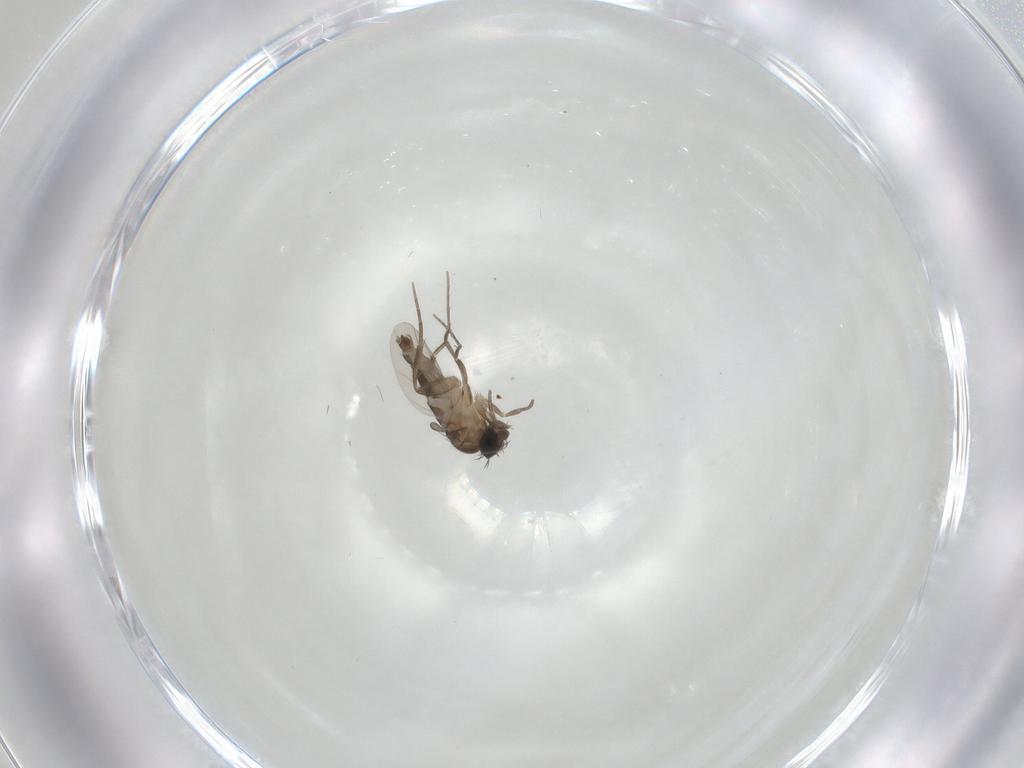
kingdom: Animalia
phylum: Arthropoda
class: Insecta
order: Diptera
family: Phoridae
